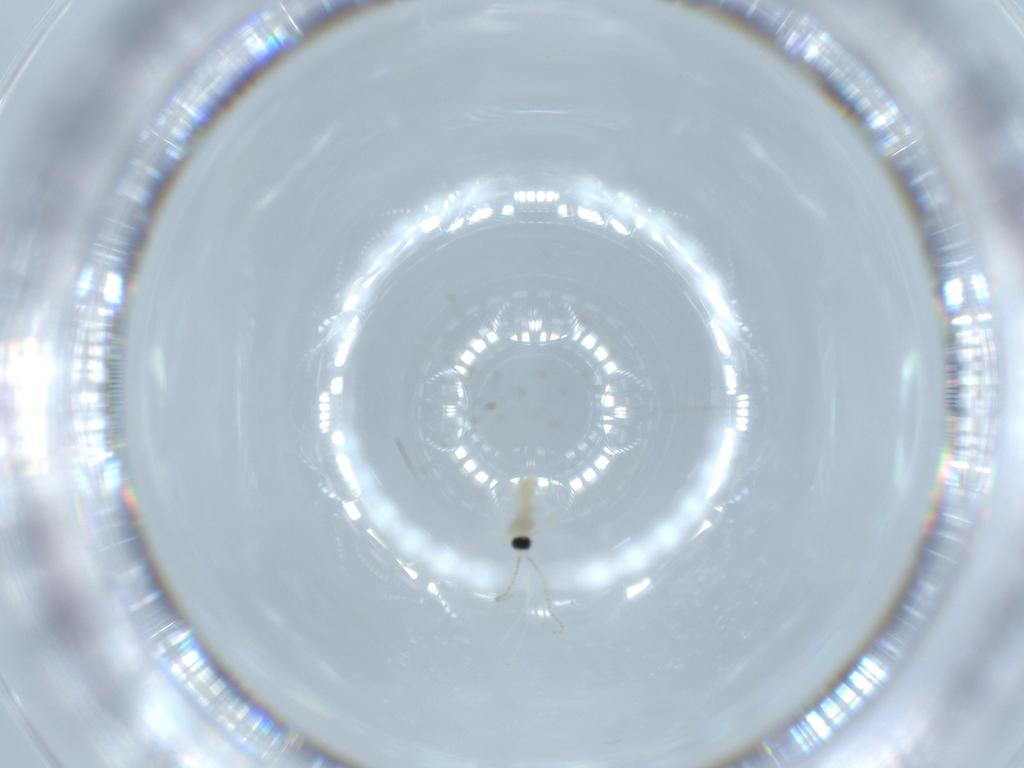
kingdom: Animalia
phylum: Arthropoda
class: Insecta
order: Diptera
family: Cecidomyiidae
